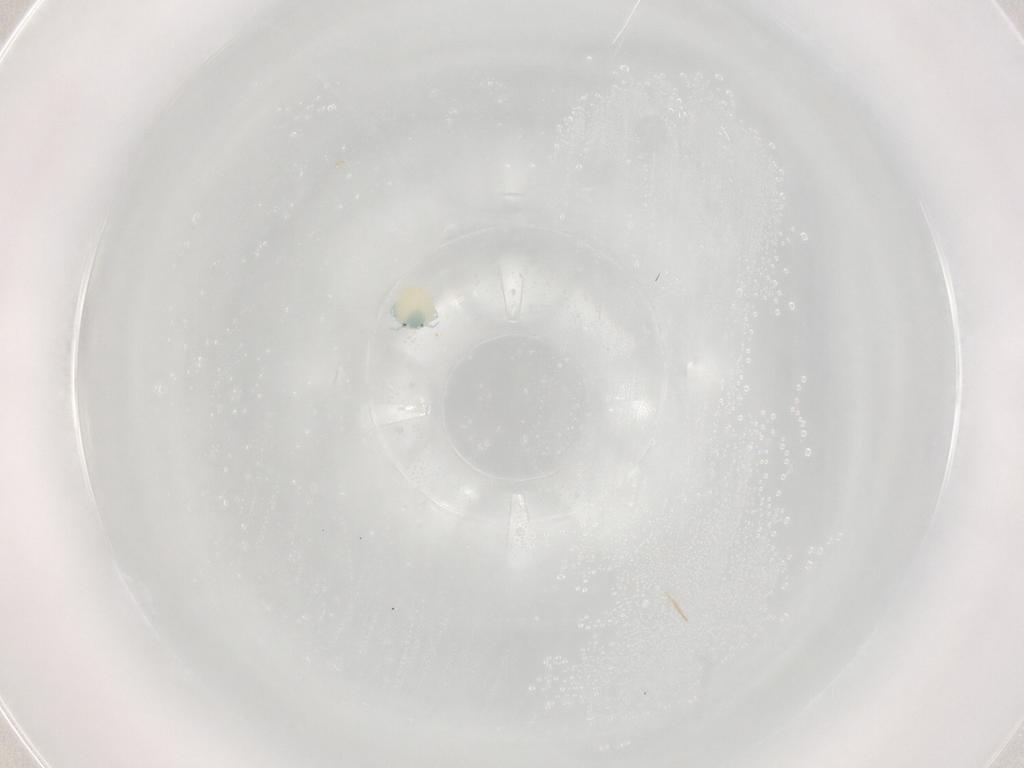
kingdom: Animalia
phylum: Arthropoda
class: Arachnida
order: Trombidiformes
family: Arrenuridae
